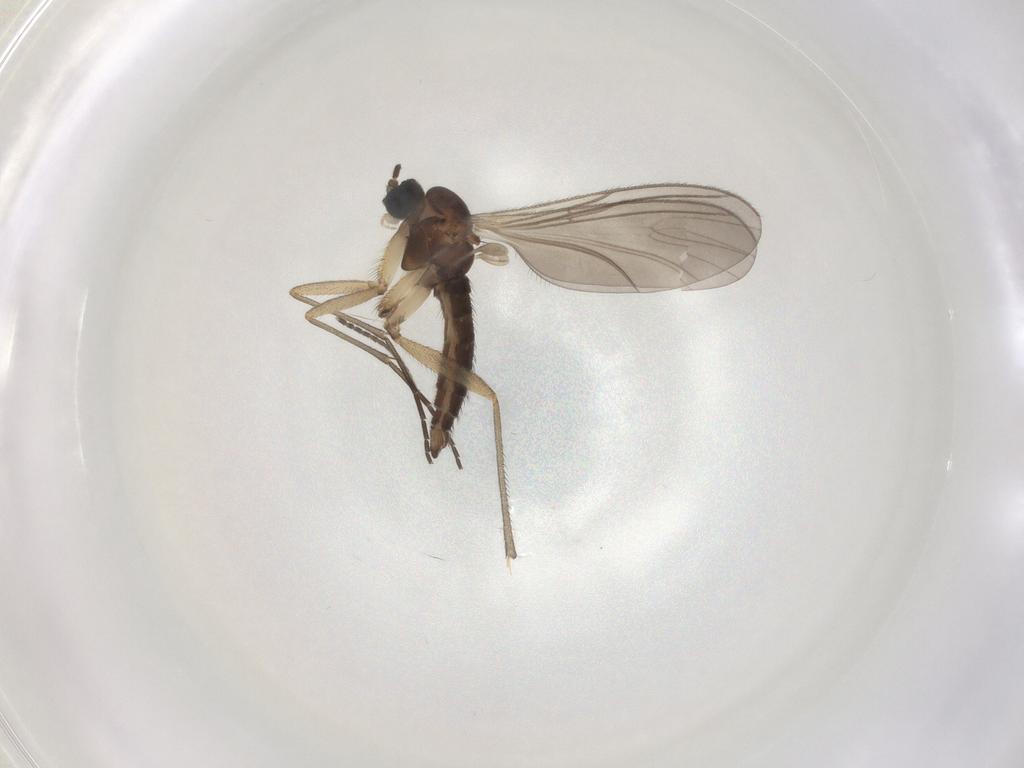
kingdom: Animalia
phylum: Arthropoda
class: Insecta
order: Diptera
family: Sciaridae
